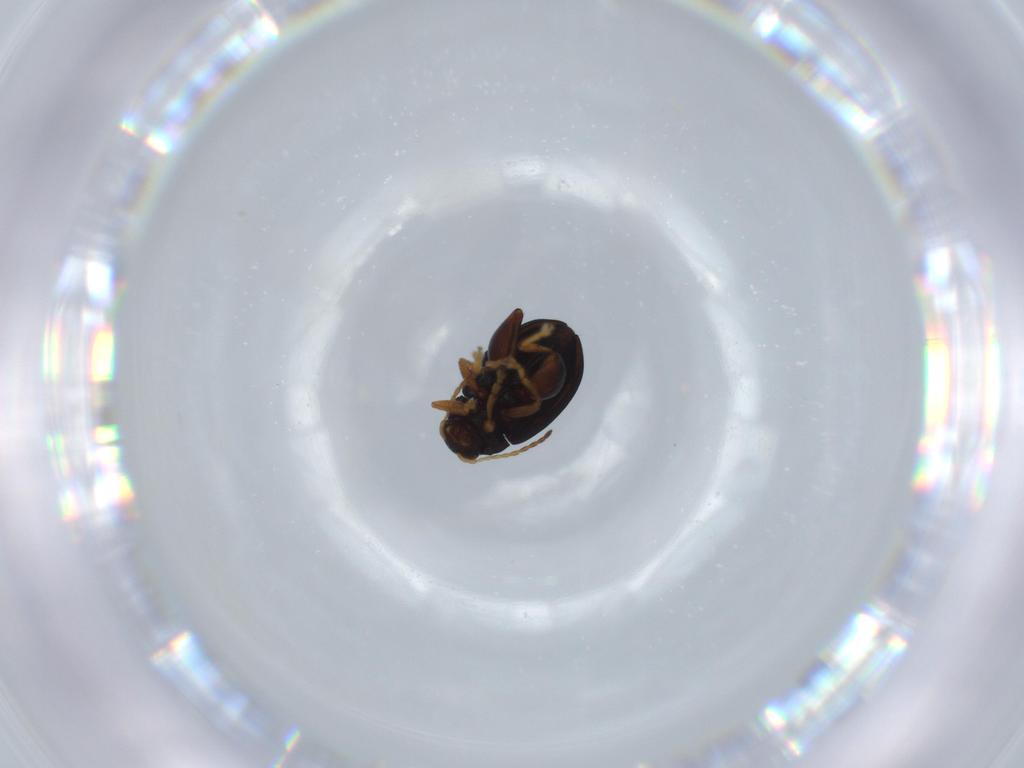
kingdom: Animalia
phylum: Arthropoda
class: Insecta
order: Coleoptera
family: Chrysomelidae
